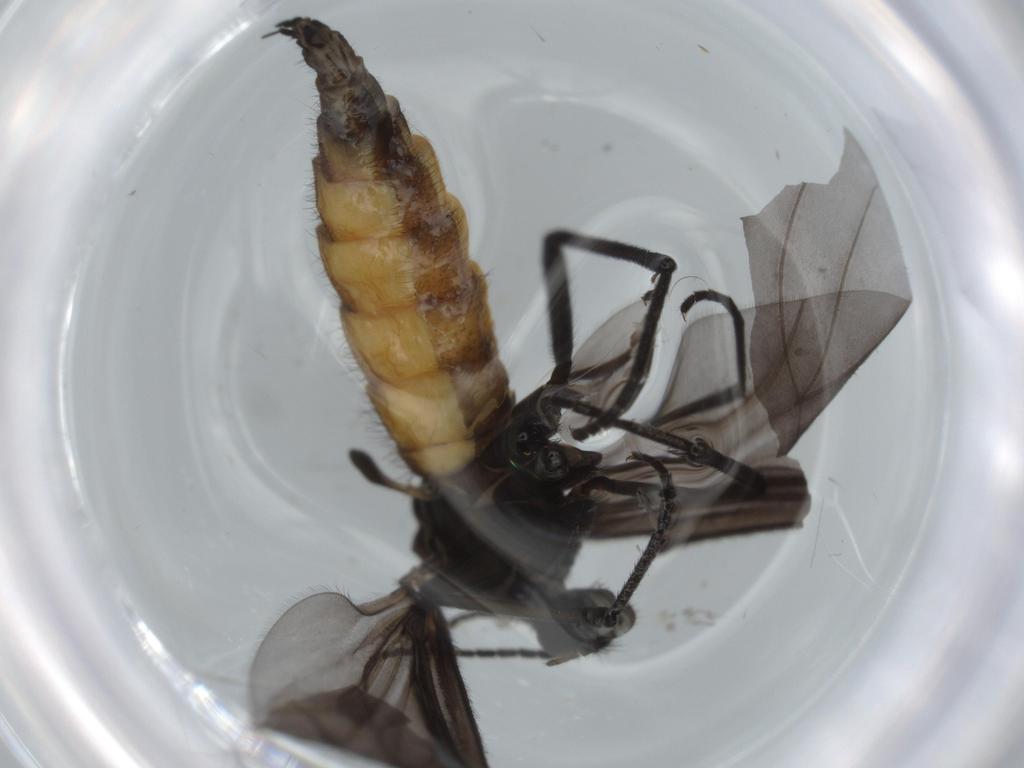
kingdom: Animalia
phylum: Arthropoda
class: Insecta
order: Diptera
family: Chironomidae
